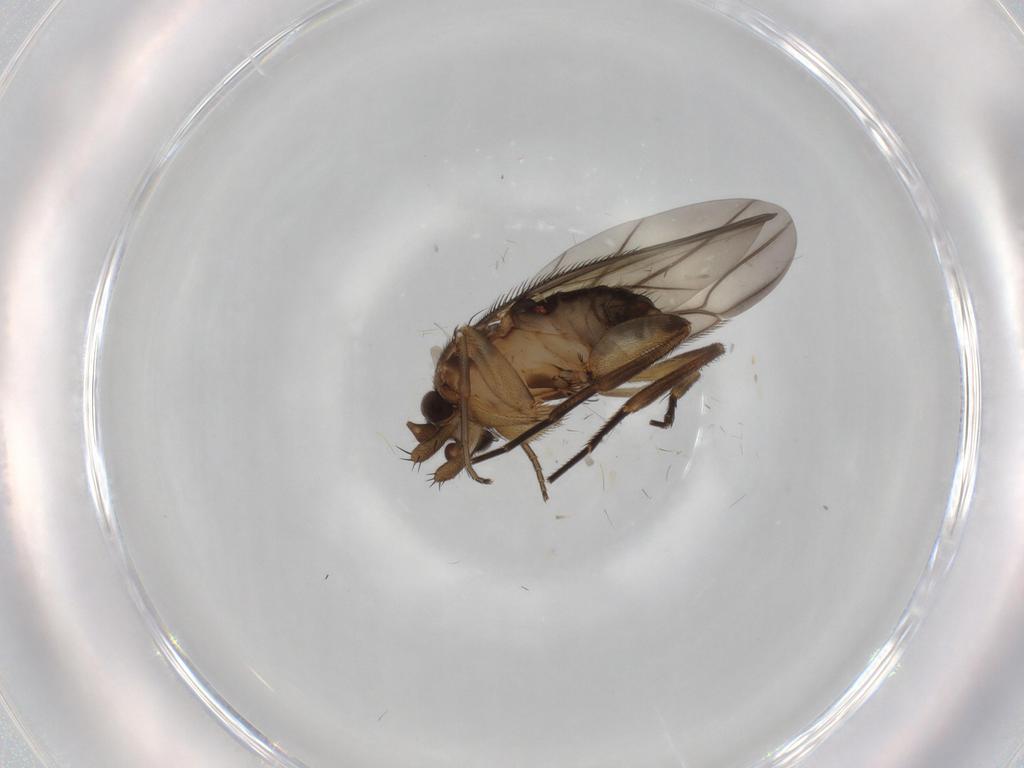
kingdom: Animalia
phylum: Arthropoda
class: Insecta
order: Diptera
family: Phoridae
